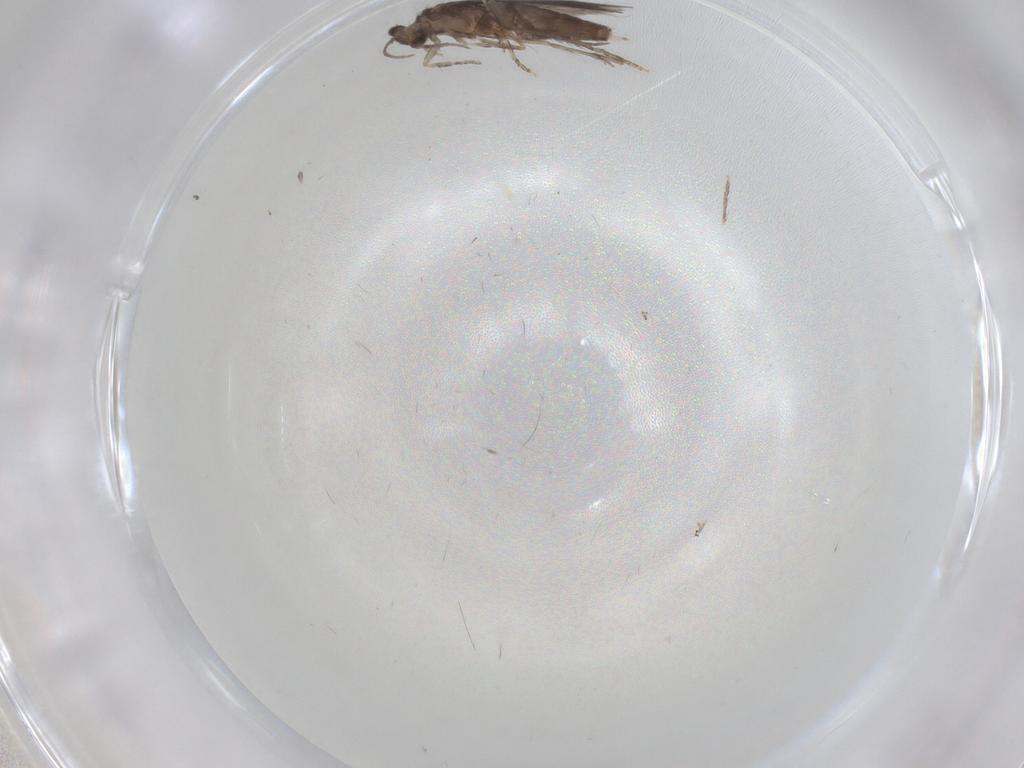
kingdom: Animalia
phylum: Arthropoda
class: Insecta
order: Trichoptera
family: Hydroptilidae
